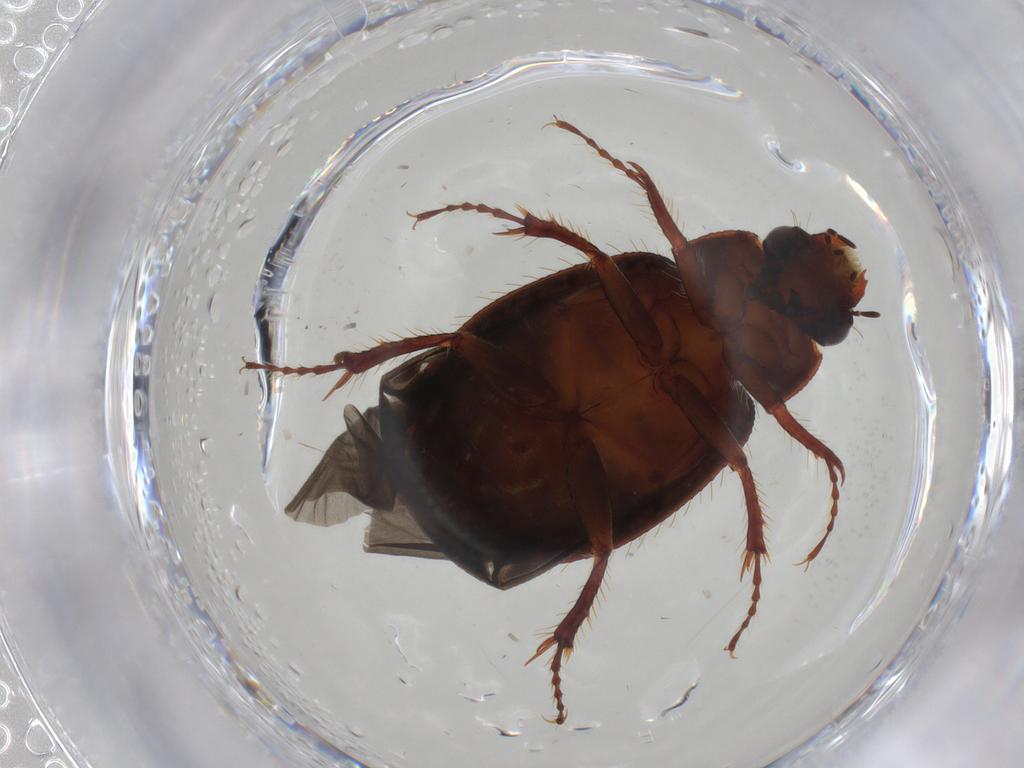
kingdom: Animalia
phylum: Arthropoda
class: Insecta
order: Coleoptera
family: Hybosoridae
